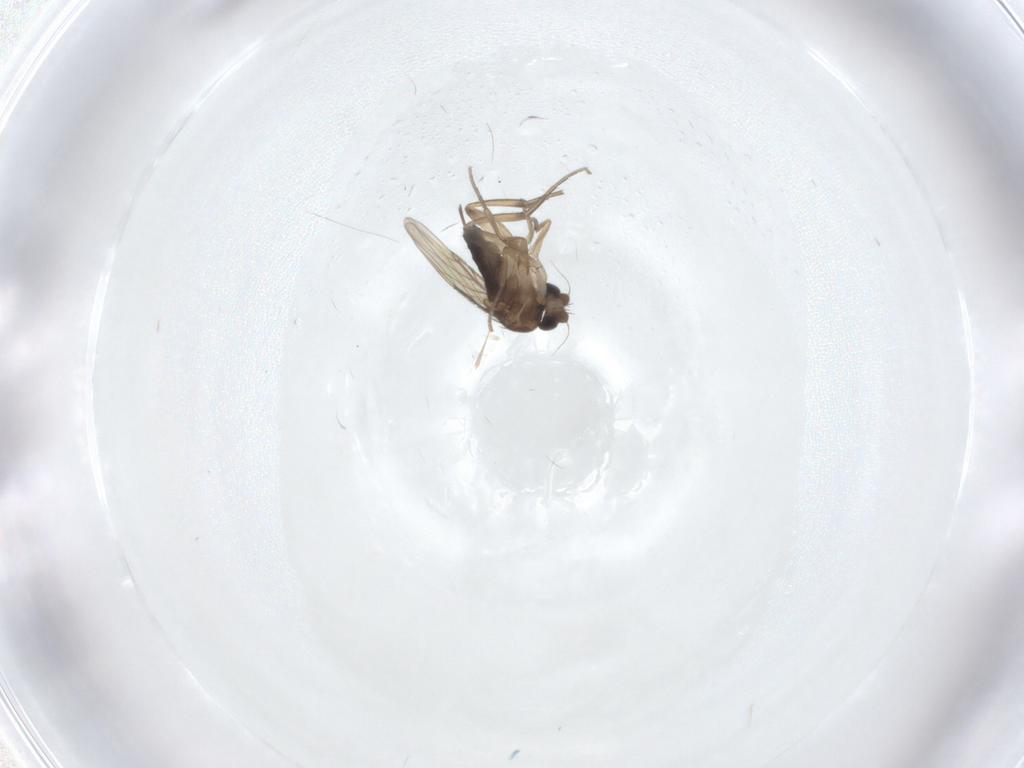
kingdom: Animalia
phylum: Arthropoda
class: Insecta
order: Diptera
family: Phoridae
